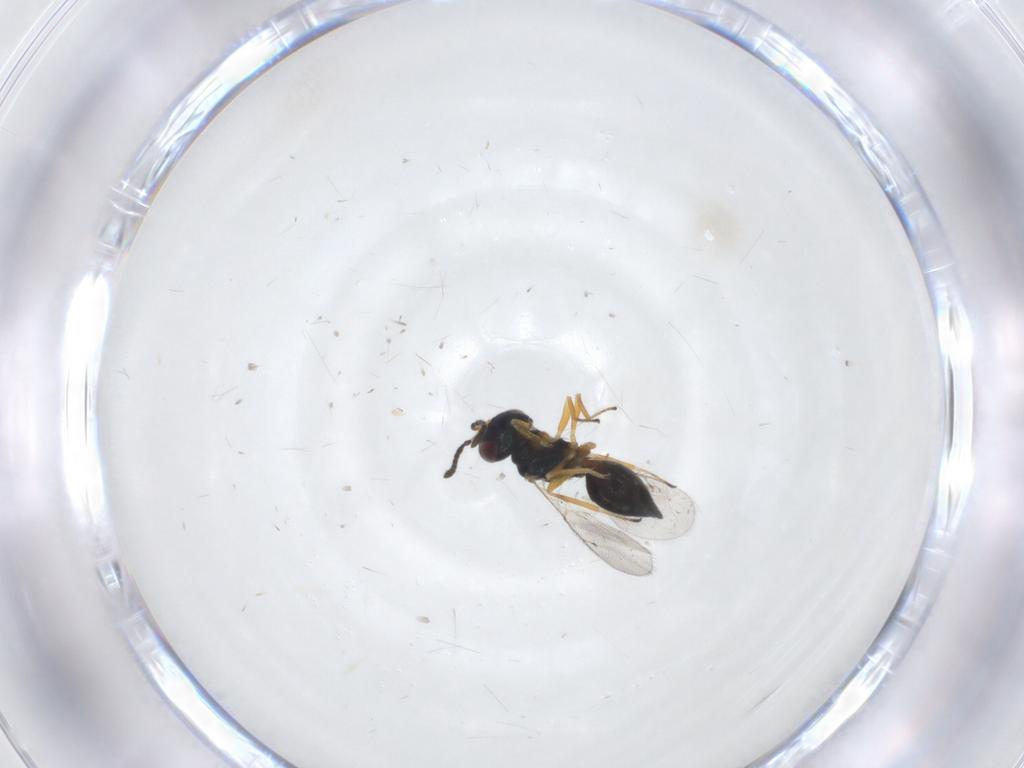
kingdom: Animalia
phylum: Arthropoda
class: Insecta
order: Hymenoptera
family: Pteromalidae
